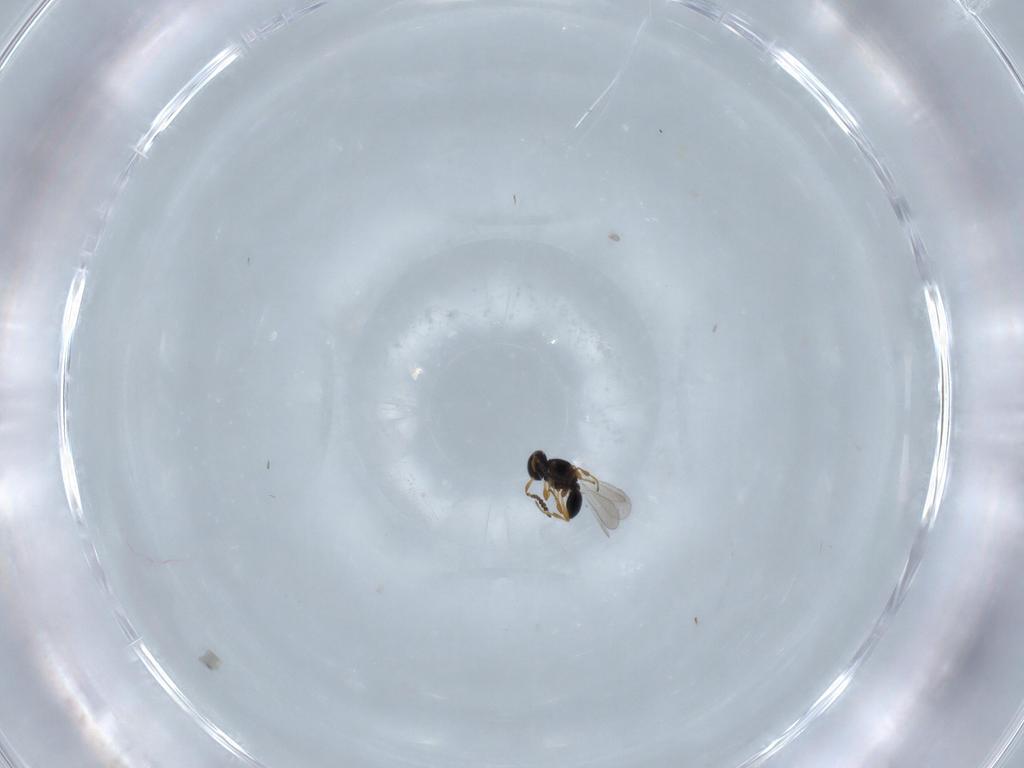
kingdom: Animalia
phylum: Arthropoda
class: Insecta
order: Hymenoptera
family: Platygastridae
